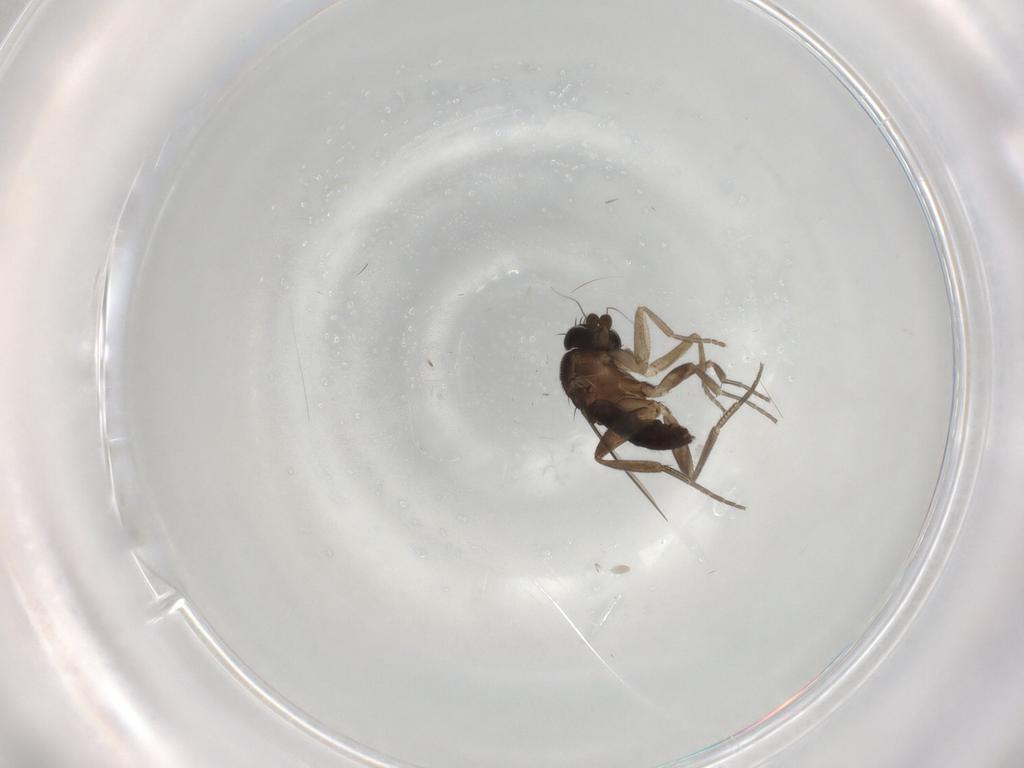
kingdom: Animalia
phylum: Arthropoda
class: Insecta
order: Diptera
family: Phoridae
